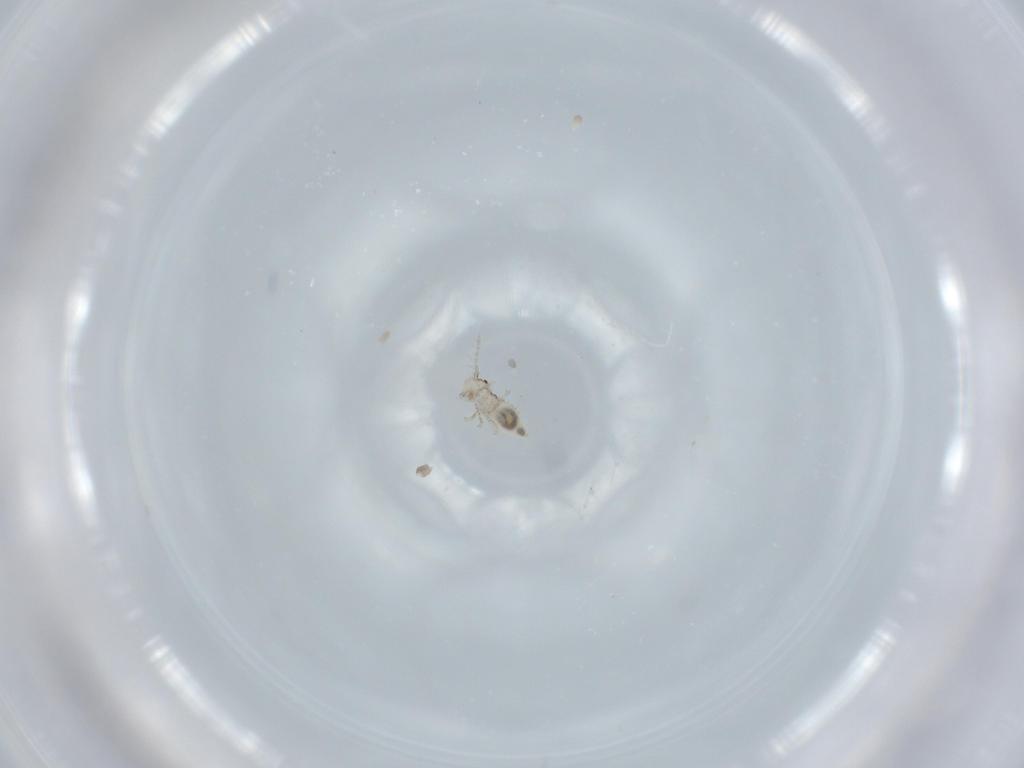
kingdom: Animalia
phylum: Arthropoda
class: Insecta
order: Psocodea
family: Pseudocaeciliidae
